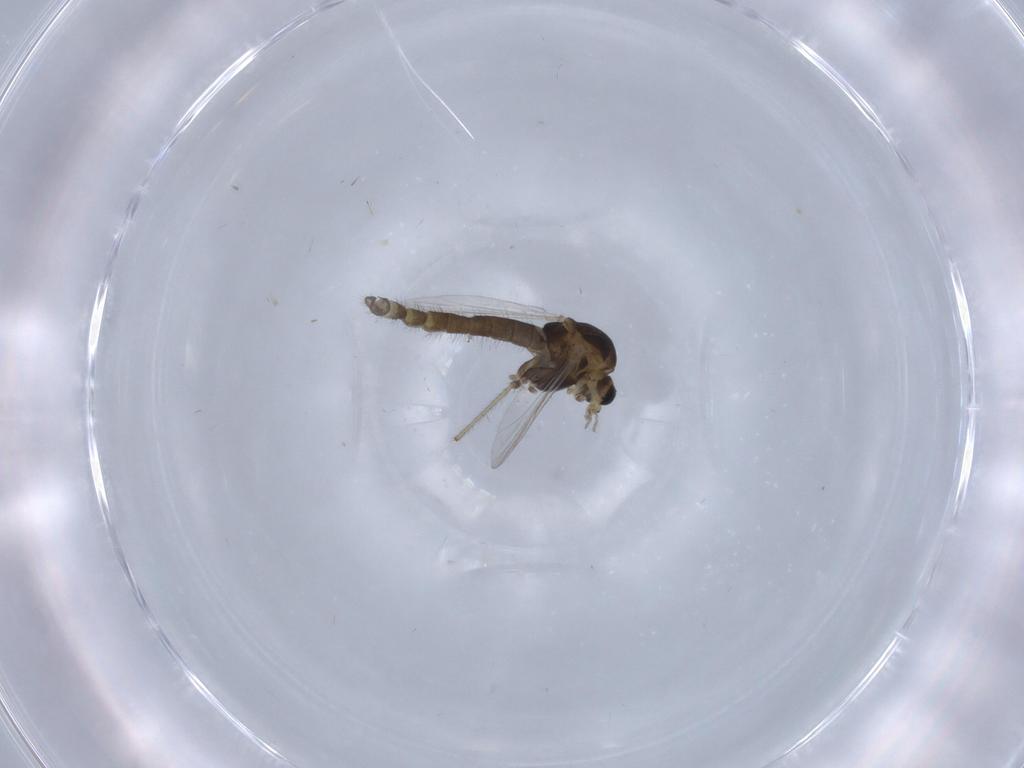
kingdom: Animalia
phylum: Arthropoda
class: Insecta
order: Diptera
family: Chironomidae
